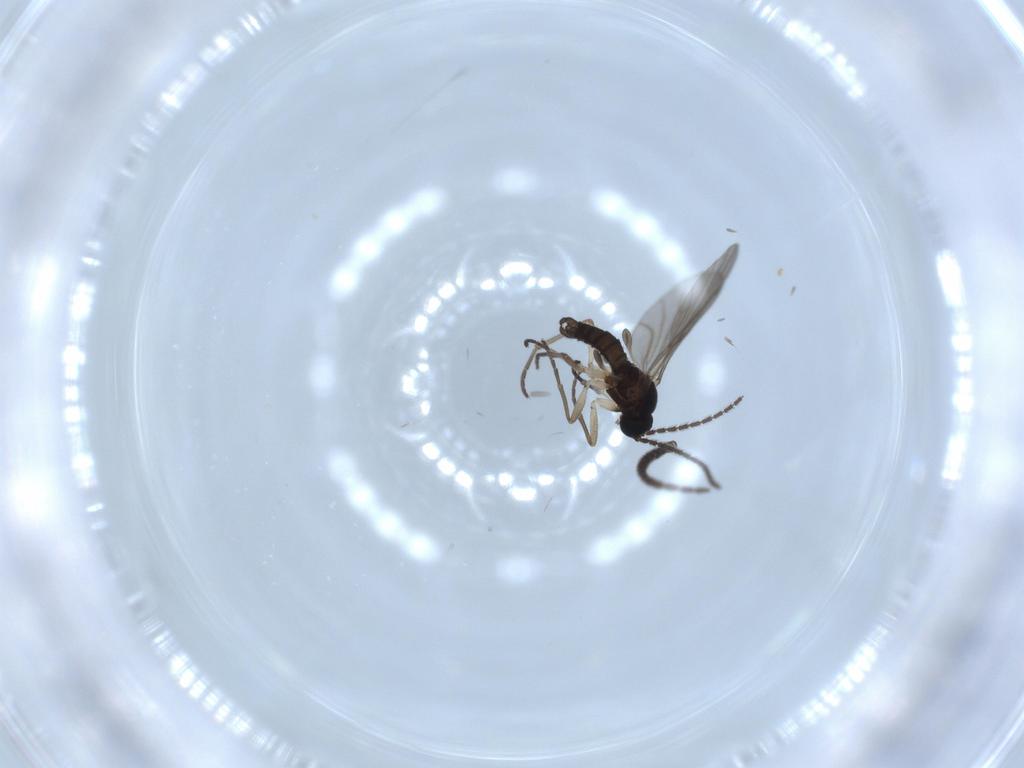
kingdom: Animalia
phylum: Arthropoda
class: Insecta
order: Diptera
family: Sciaridae
